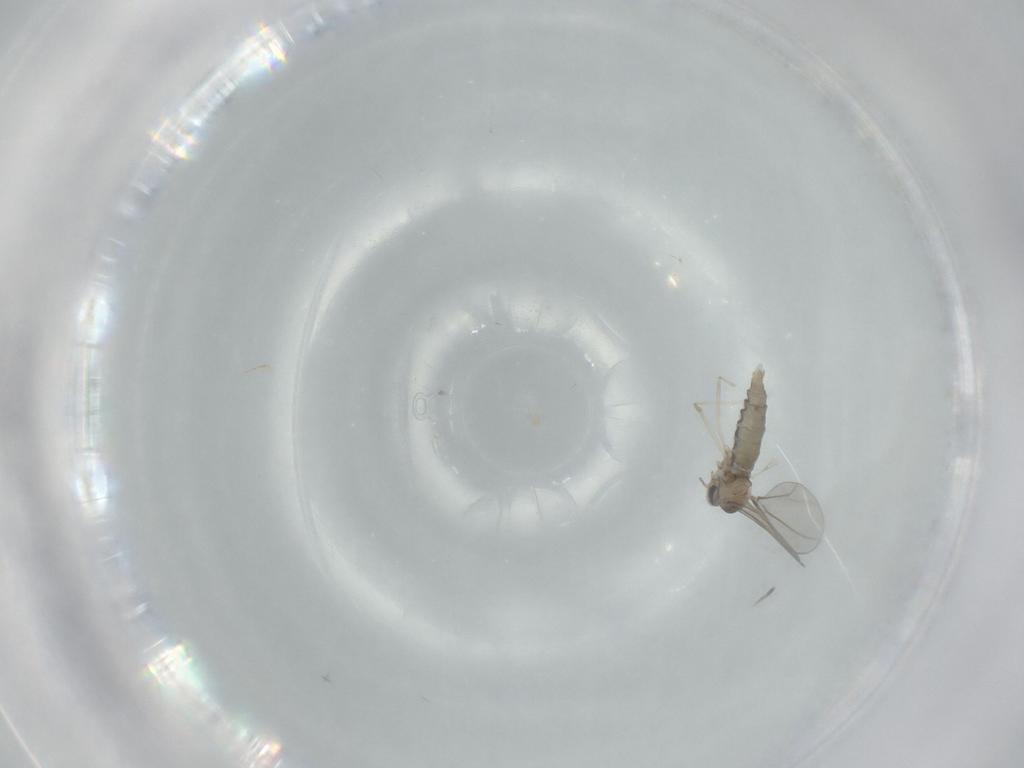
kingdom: Animalia
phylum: Arthropoda
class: Insecta
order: Diptera
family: Cecidomyiidae
